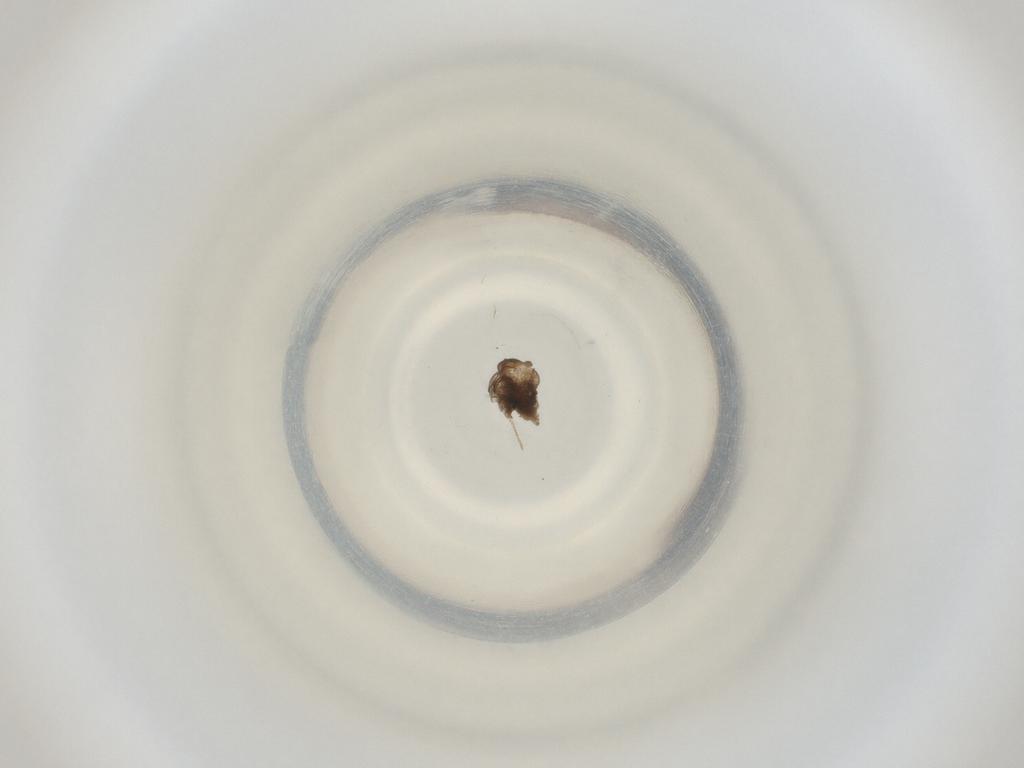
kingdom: Animalia
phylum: Arthropoda
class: Insecta
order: Diptera
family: Cecidomyiidae
